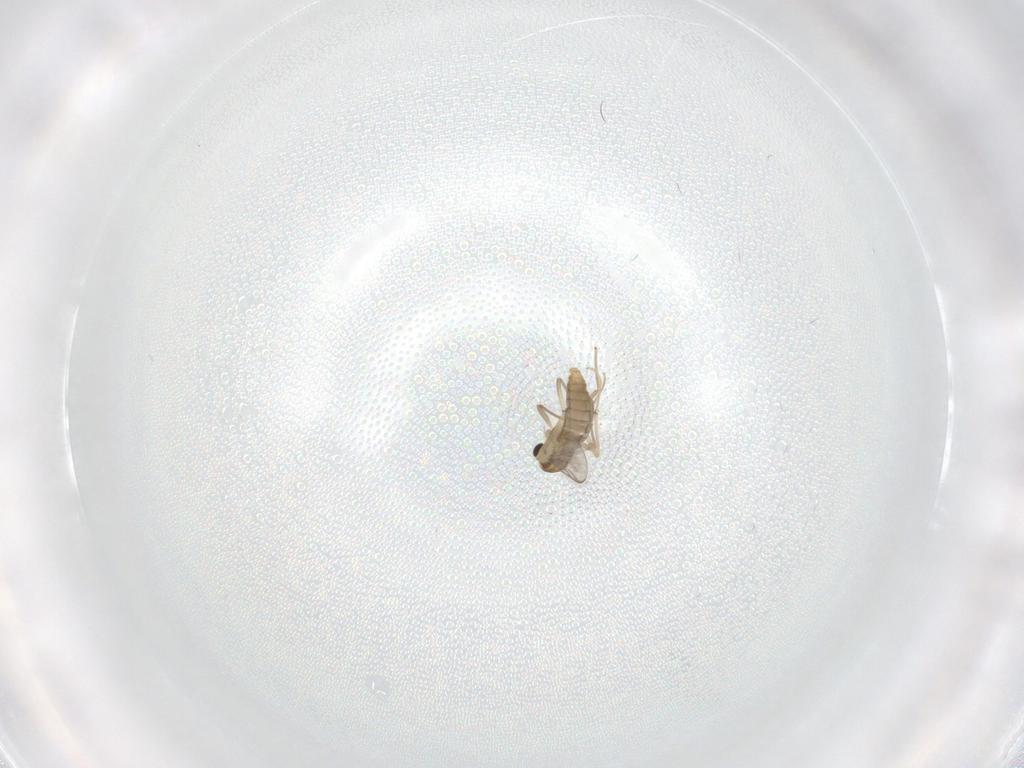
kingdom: Animalia
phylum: Arthropoda
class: Insecta
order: Diptera
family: Chironomidae
